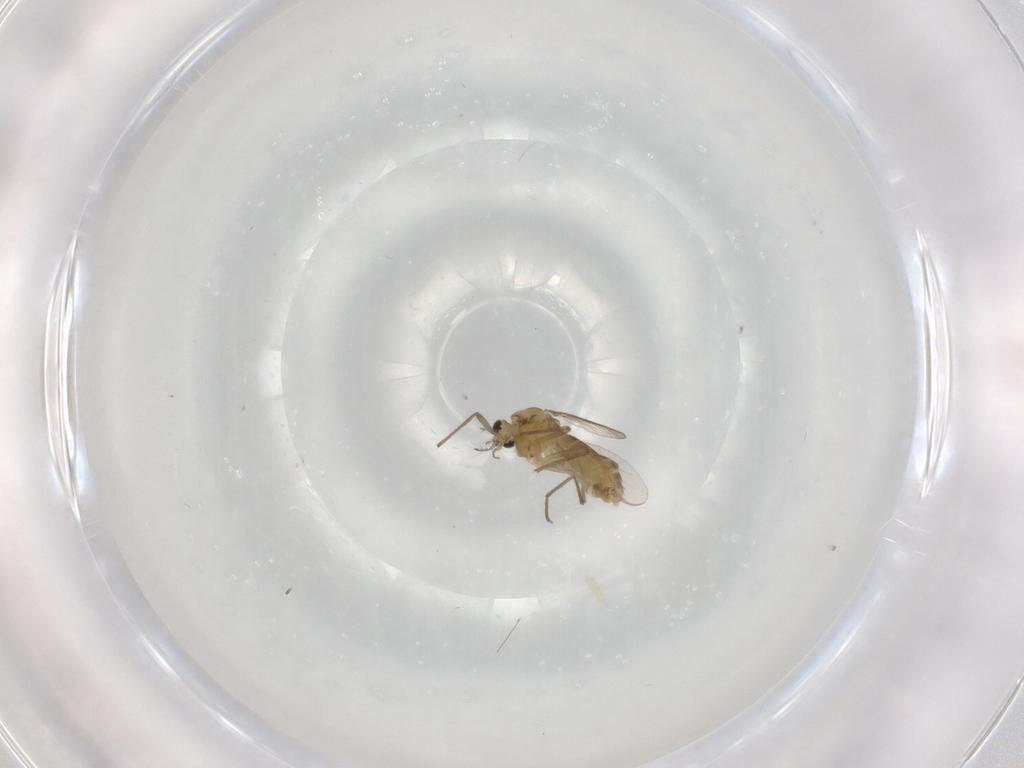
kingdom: Animalia
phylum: Arthropoda
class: Insecta
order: Diptera
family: Chironomidae
